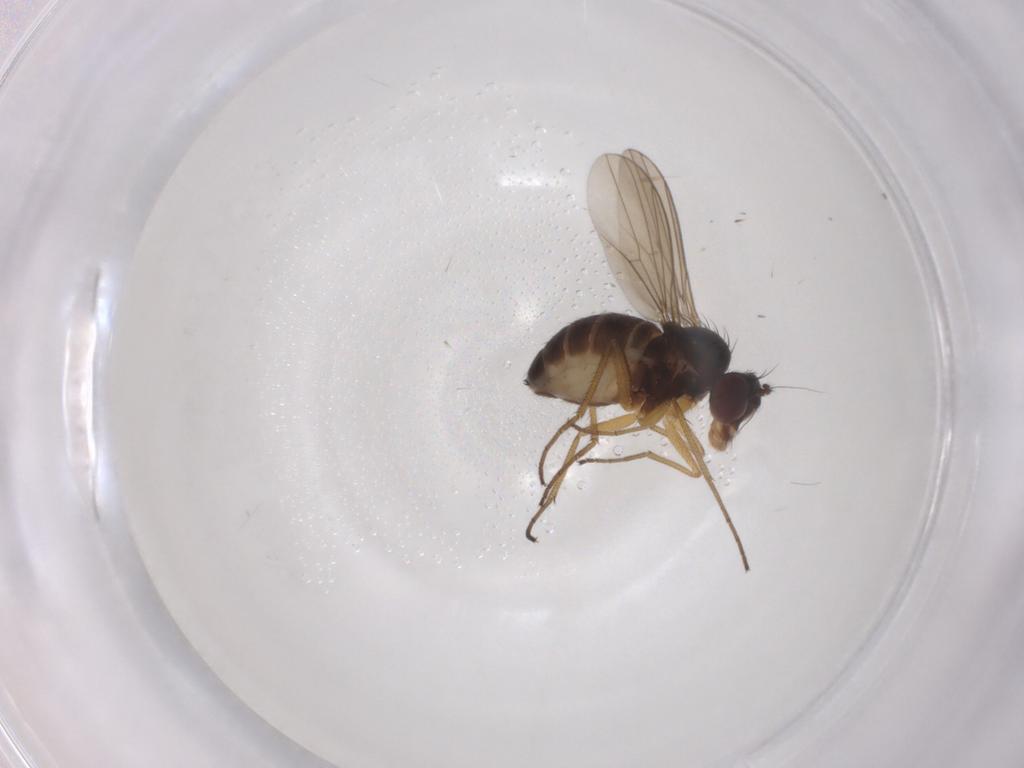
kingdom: Animalia
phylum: Arthropoda
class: Insecta
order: Diptera
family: Dolichopodidae
